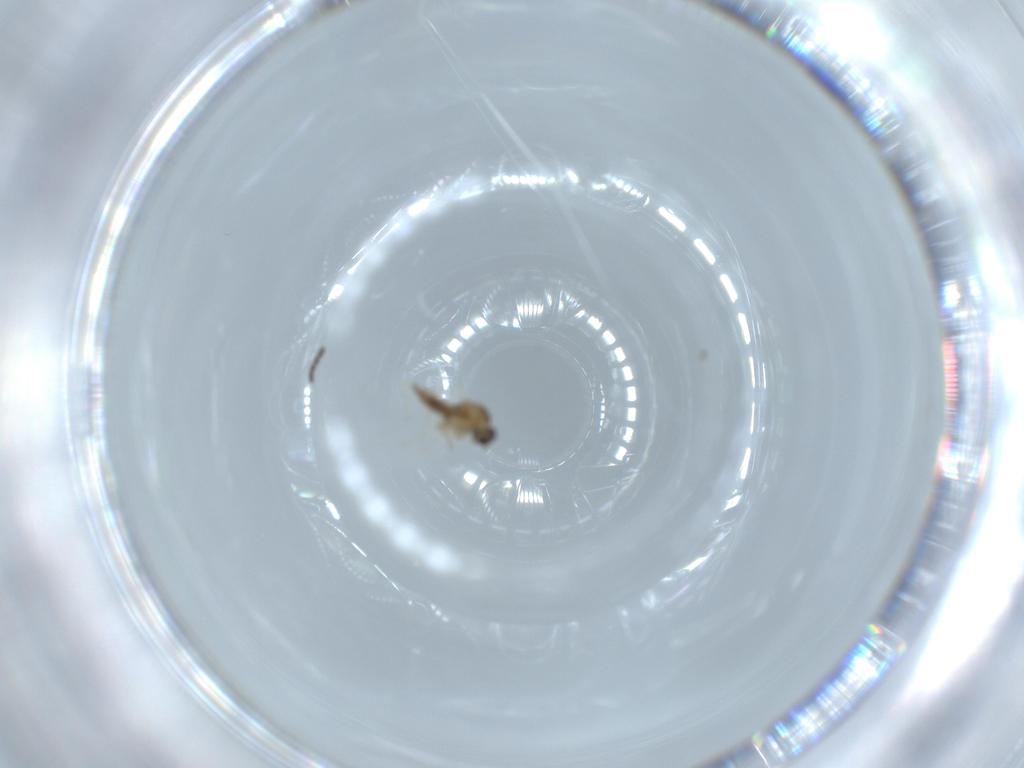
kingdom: Animalia
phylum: Arthropoda
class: Insecta
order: Diptera
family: Cecidomyiidae
